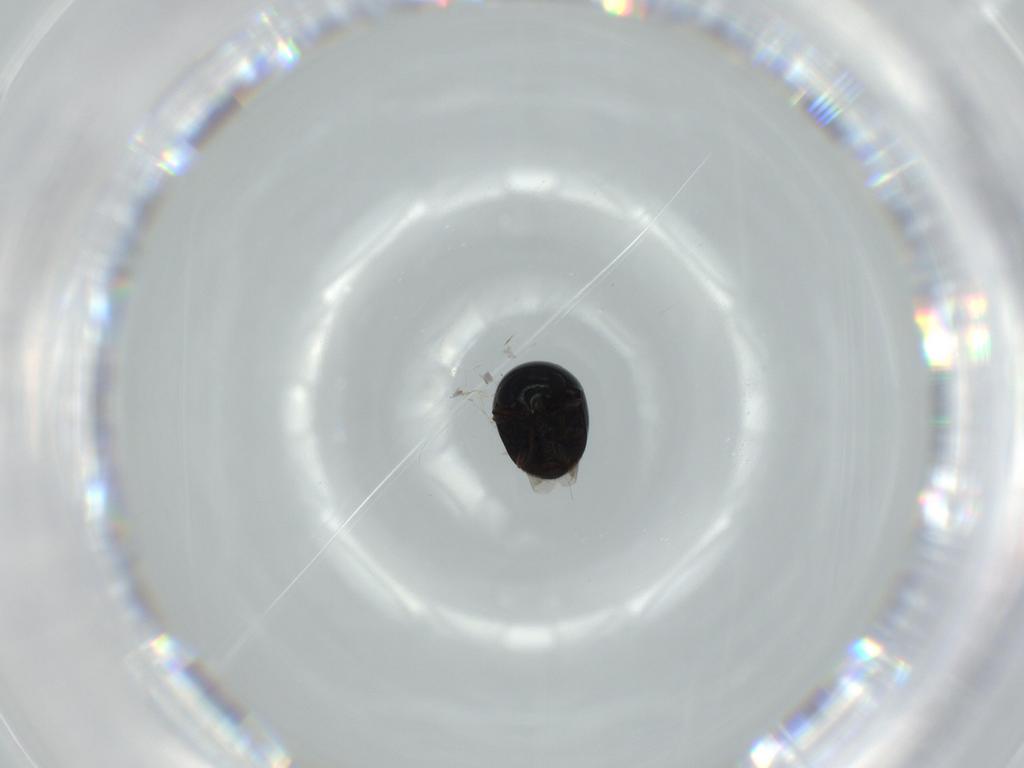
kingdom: Animalia
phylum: Arthropoda
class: Insecta
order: Coleoptera
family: Cybocephalidae
